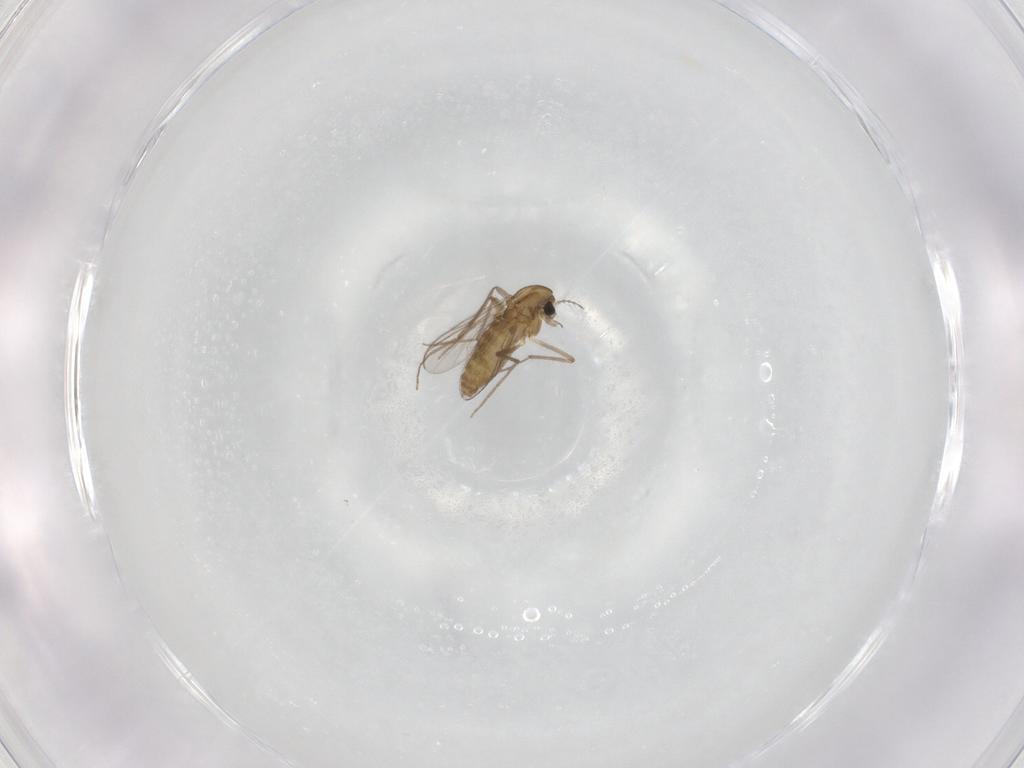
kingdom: Animalia
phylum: Arthropoda
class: Insecta
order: Diptera
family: Chironomidae
